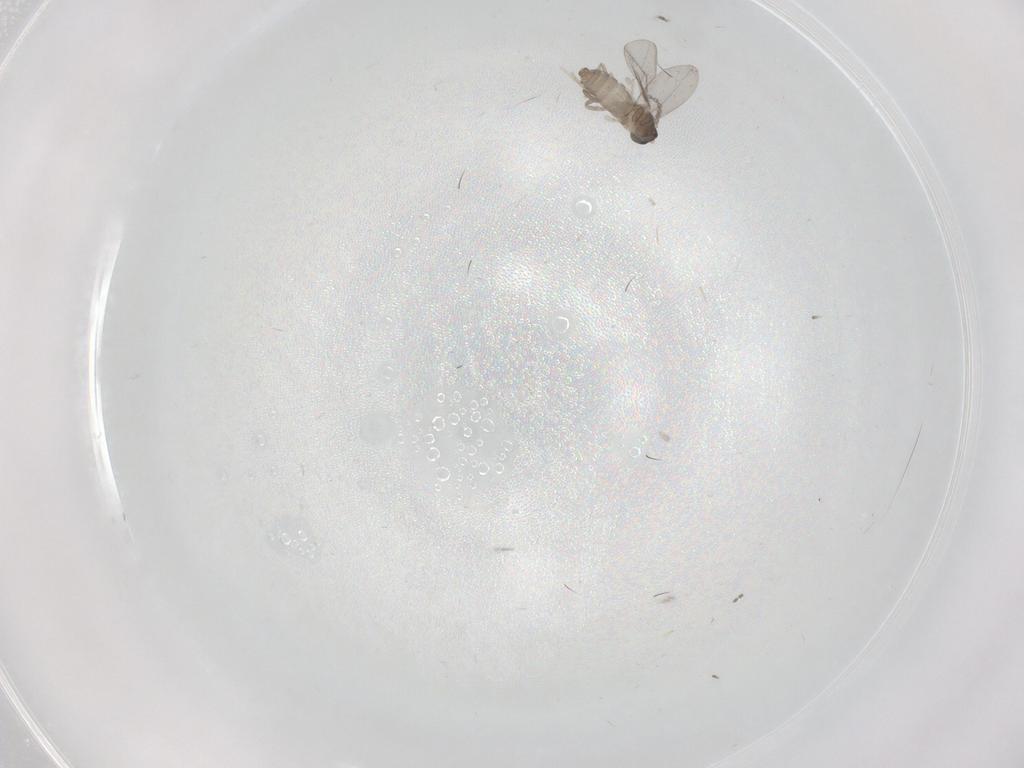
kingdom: Animalia
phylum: Arthropoda
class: Insecta
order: Diptera
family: Cecidomyiidae
